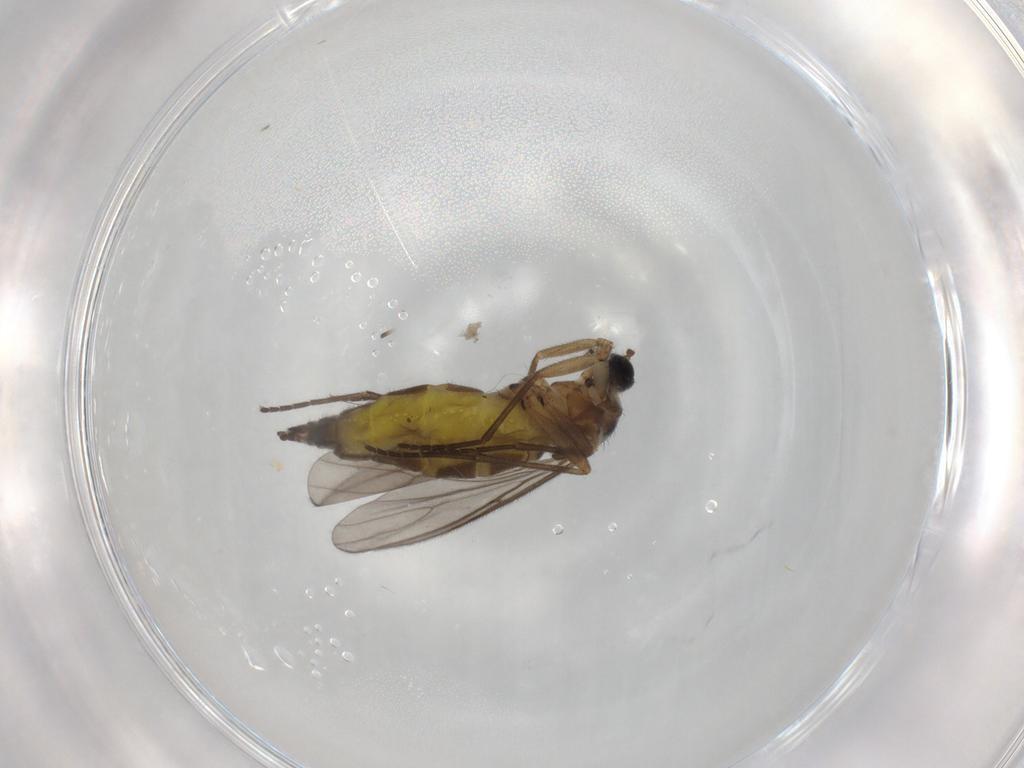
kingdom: Animalia
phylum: Arthropoda
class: Insecta
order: Diptera
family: Sciaridae
